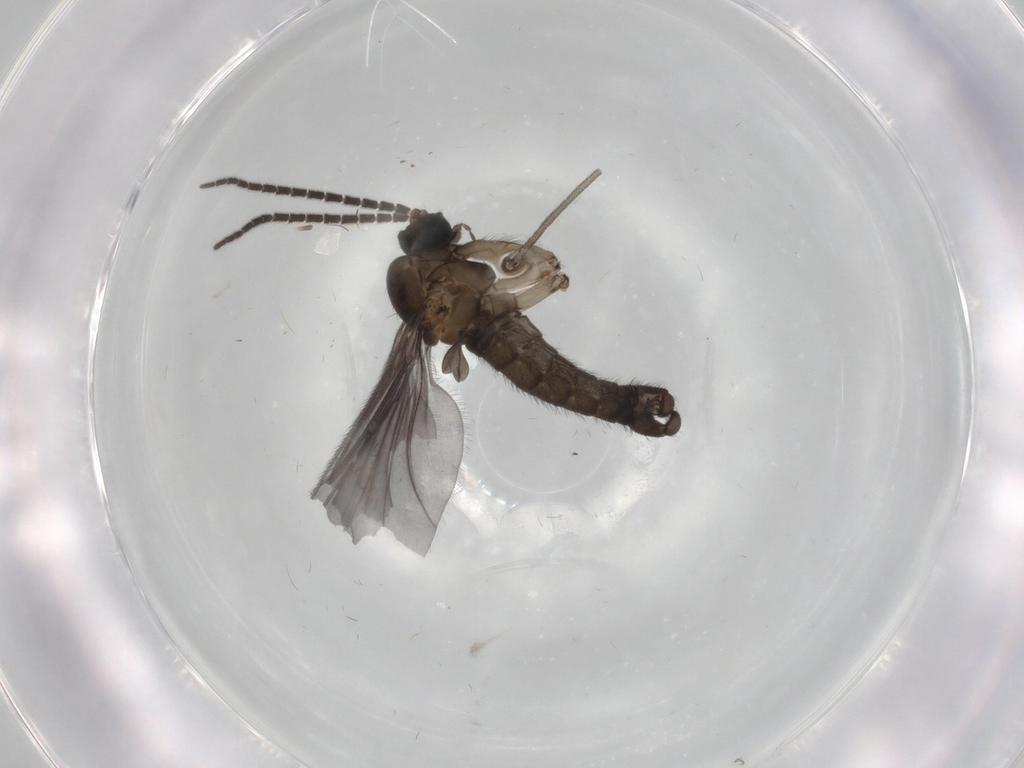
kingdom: Animalia
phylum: Arthropoda
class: Insecta
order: Diptera
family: Sciaridae
